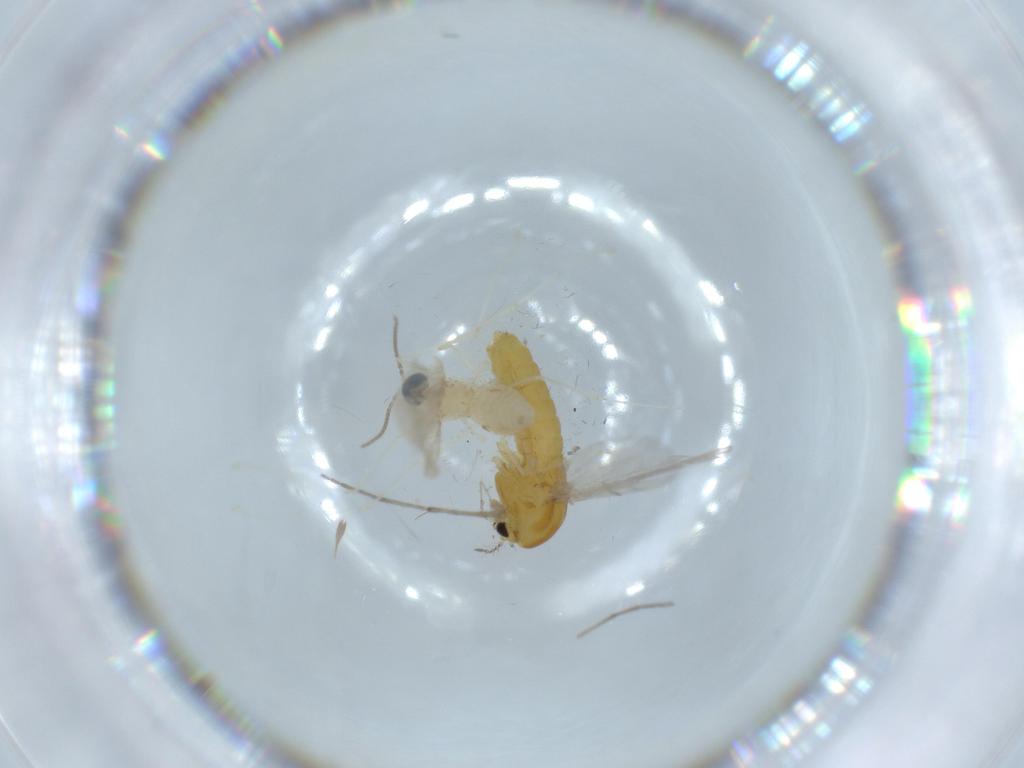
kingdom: Animalia
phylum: Arthropoda
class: Insecta
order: Diptera
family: Chironomidae
